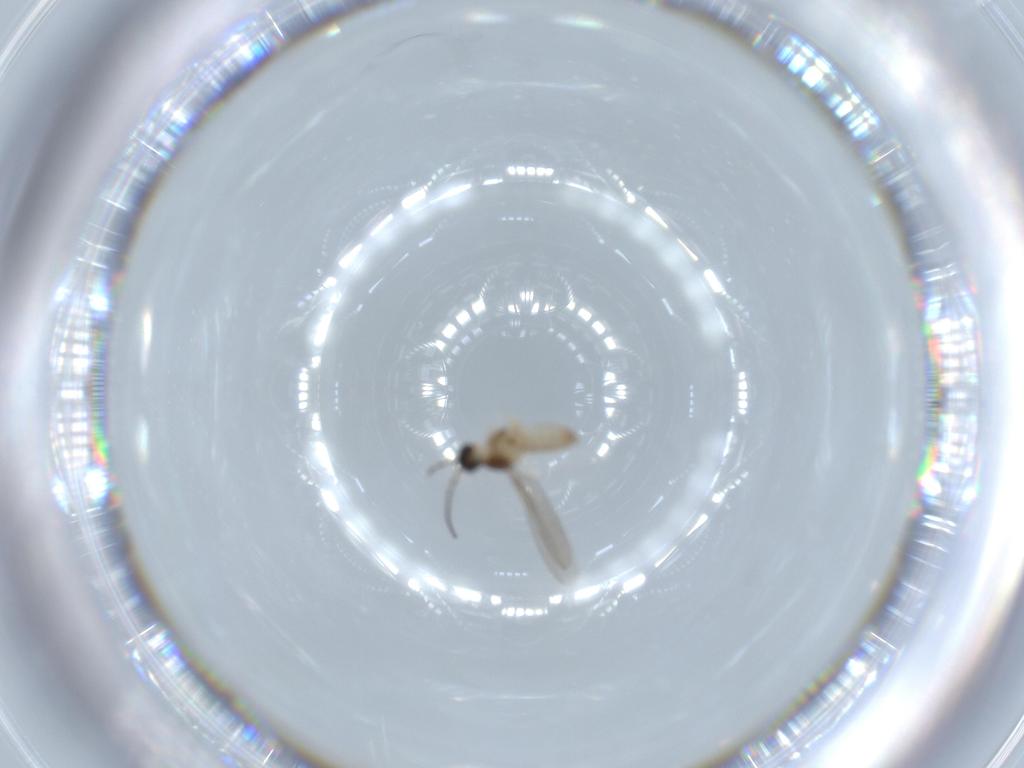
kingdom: Animalia
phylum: Arthropoda
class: Insecta
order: Diptera
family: Cecidomyiidae
